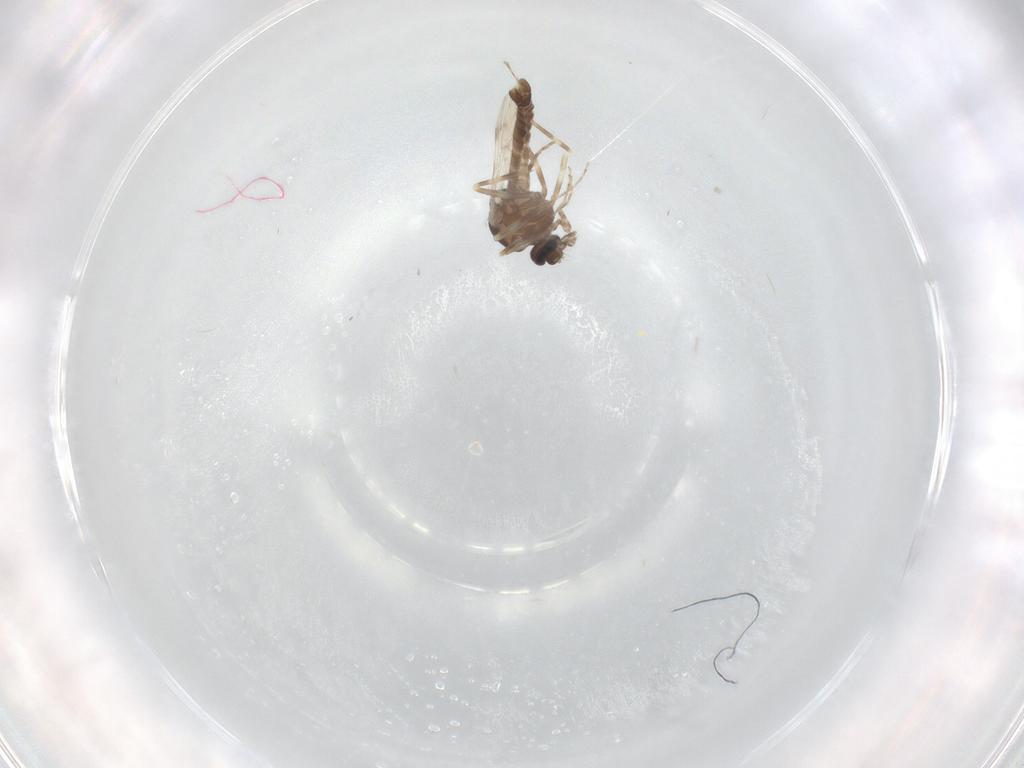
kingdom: Animalia
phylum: Arthropoda
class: Insecta
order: Diptera
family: Ceratopogonidae
